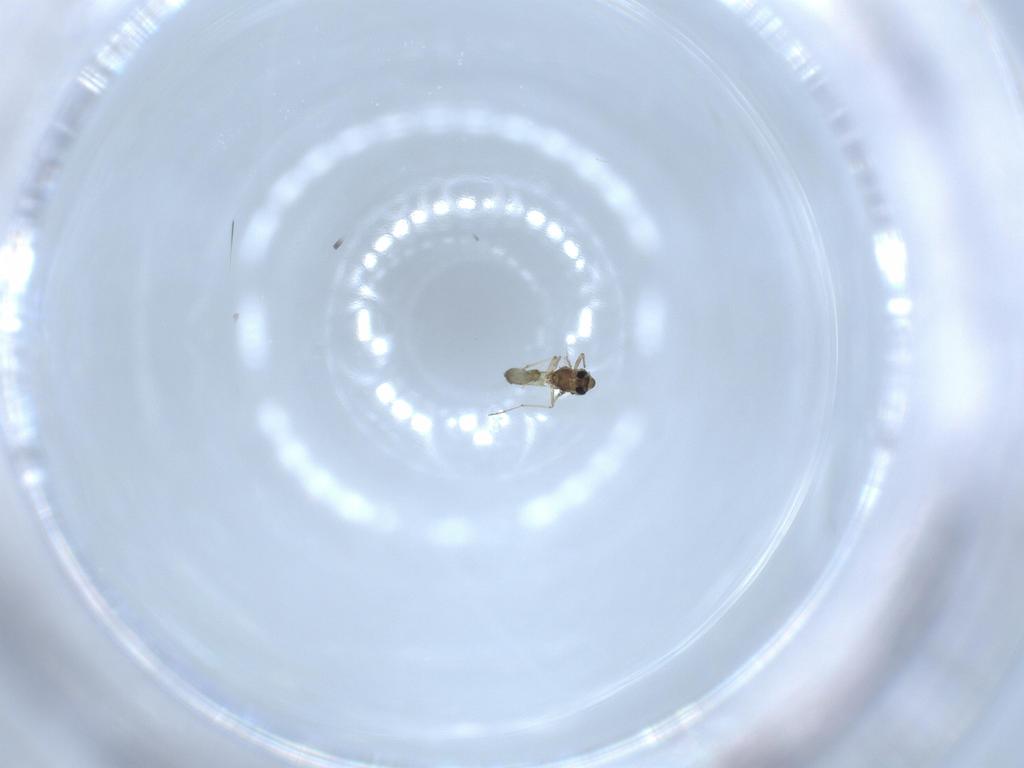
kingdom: Animalia
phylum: Arthropoda
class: Insecta
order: Diptera
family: Chironomidae
